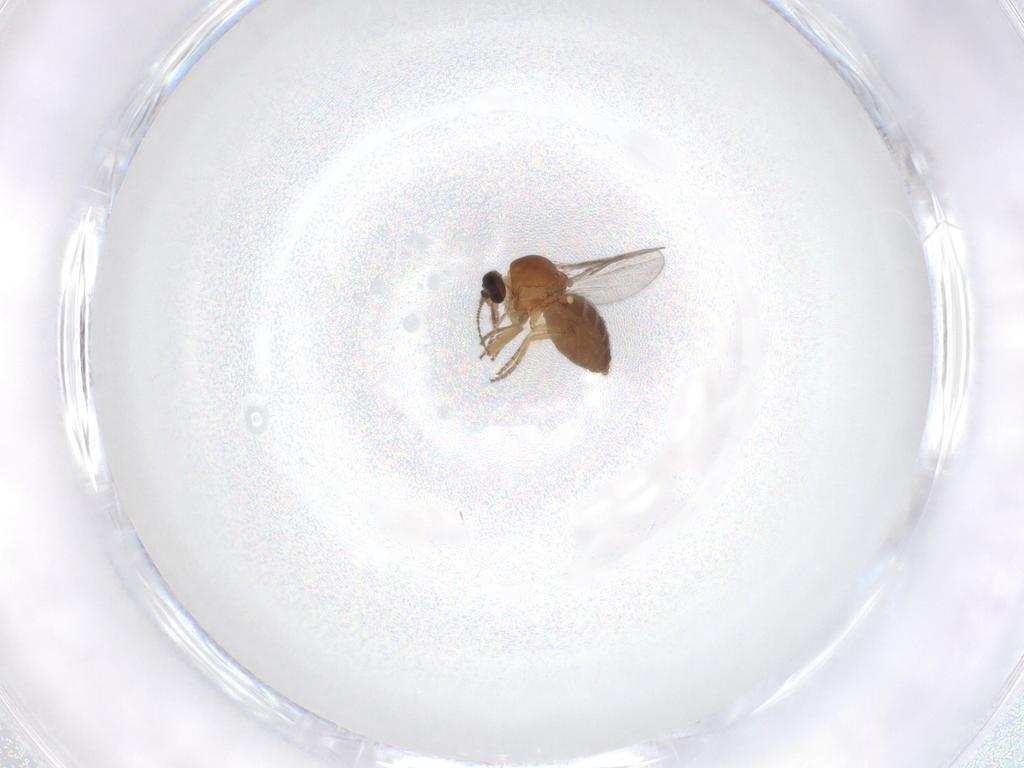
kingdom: Animalia
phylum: Arthropoda
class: Insecta
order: Diptera
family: Ceratopogonidae
